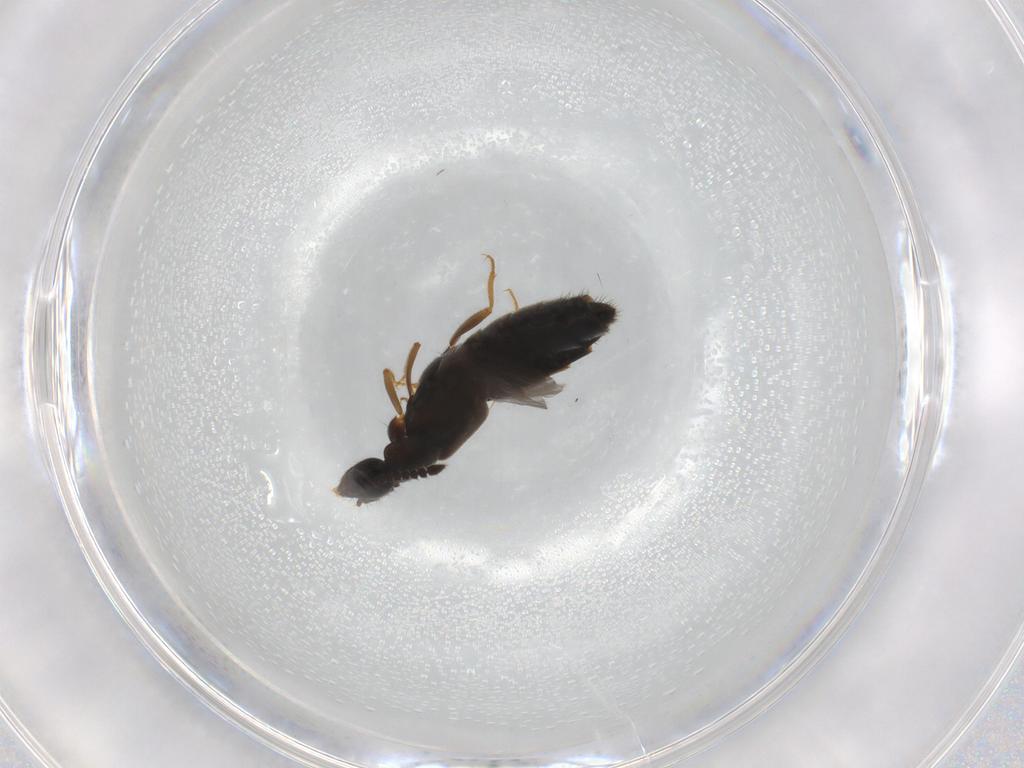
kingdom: Animalia
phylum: Arthropoda
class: Insecta
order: Coleoptera
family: Staphylinidae
